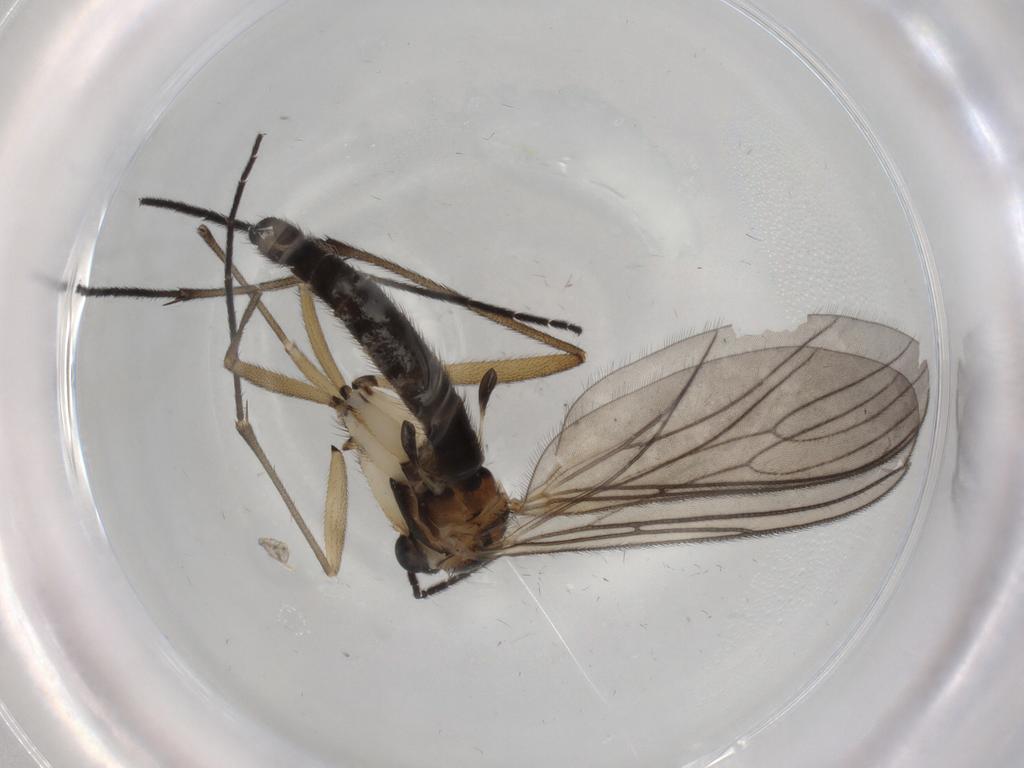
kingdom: Animalia
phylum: Arthropoda
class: Insecta
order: Diptera
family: Sciaridae
